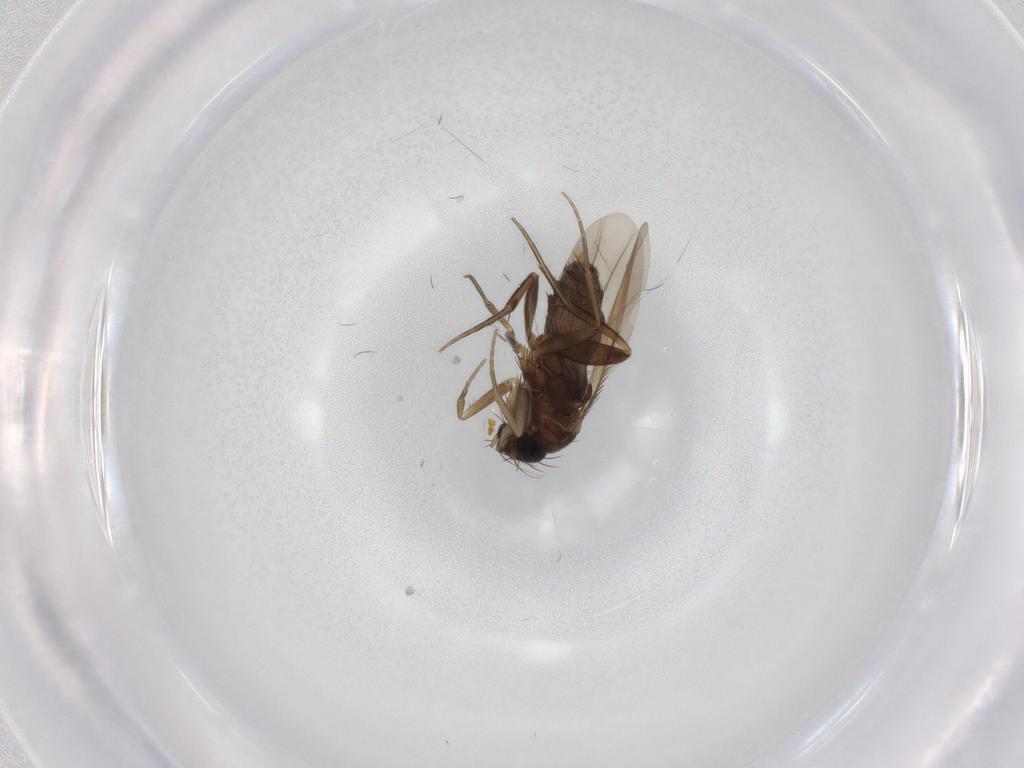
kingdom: Animalia
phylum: Arthropoda
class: Insecta
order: Diptera
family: Phoridae
